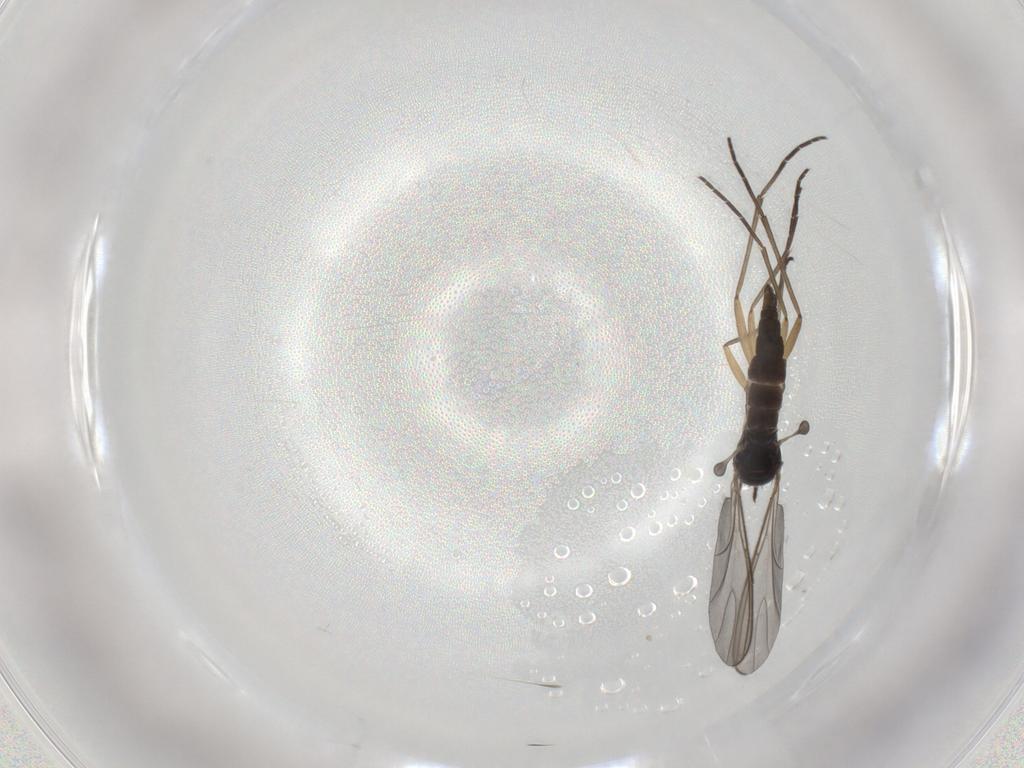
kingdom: Animalia
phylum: Arthropoda
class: Insecta
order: Diptera
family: Sciaridae
